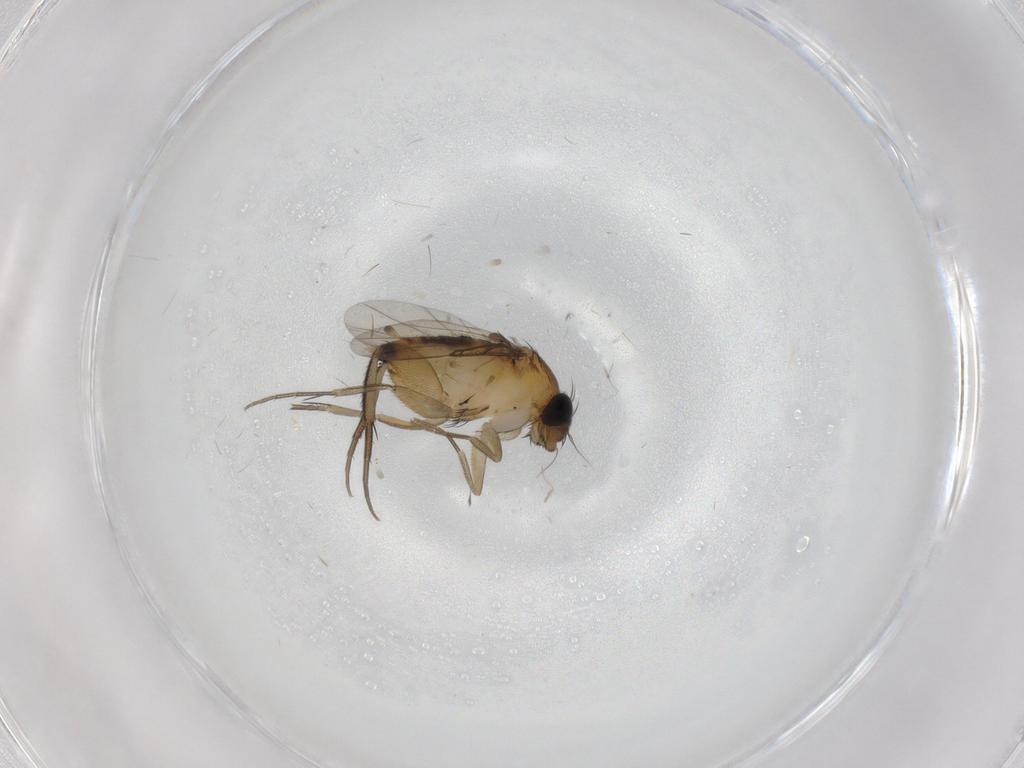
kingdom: Animalia
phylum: Arthropoda
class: Insecta
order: Diptera
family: Phoridae
